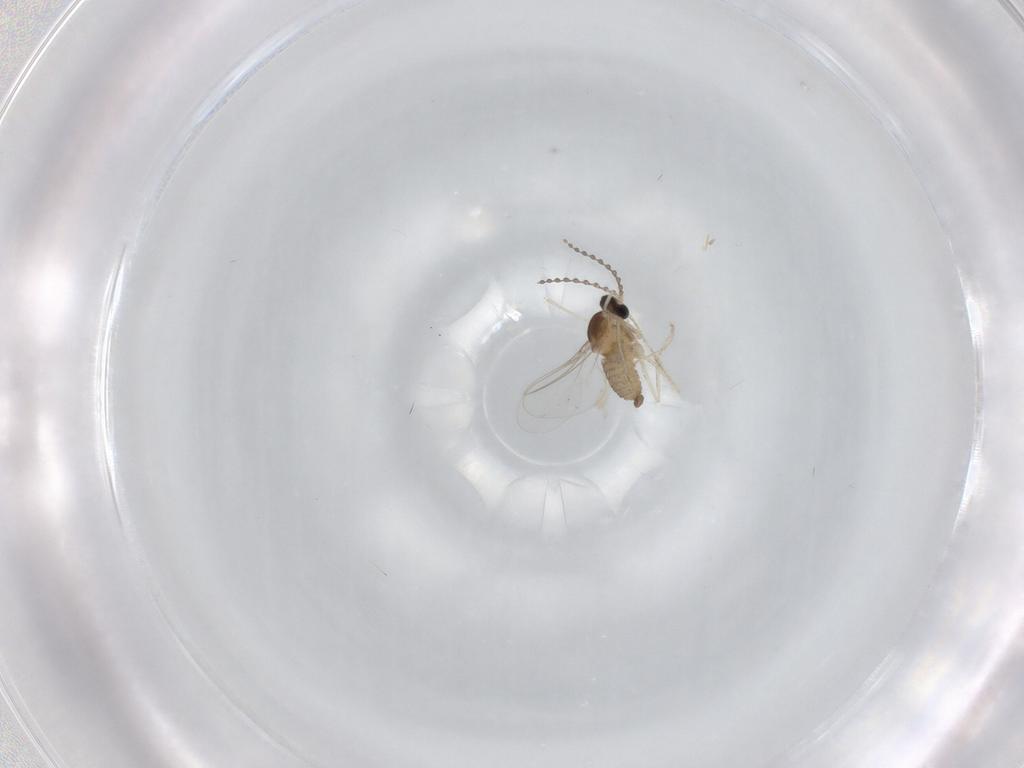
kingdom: Animalia
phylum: Arthropoda
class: Insecta
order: Diptera
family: Cecidomyiidae
